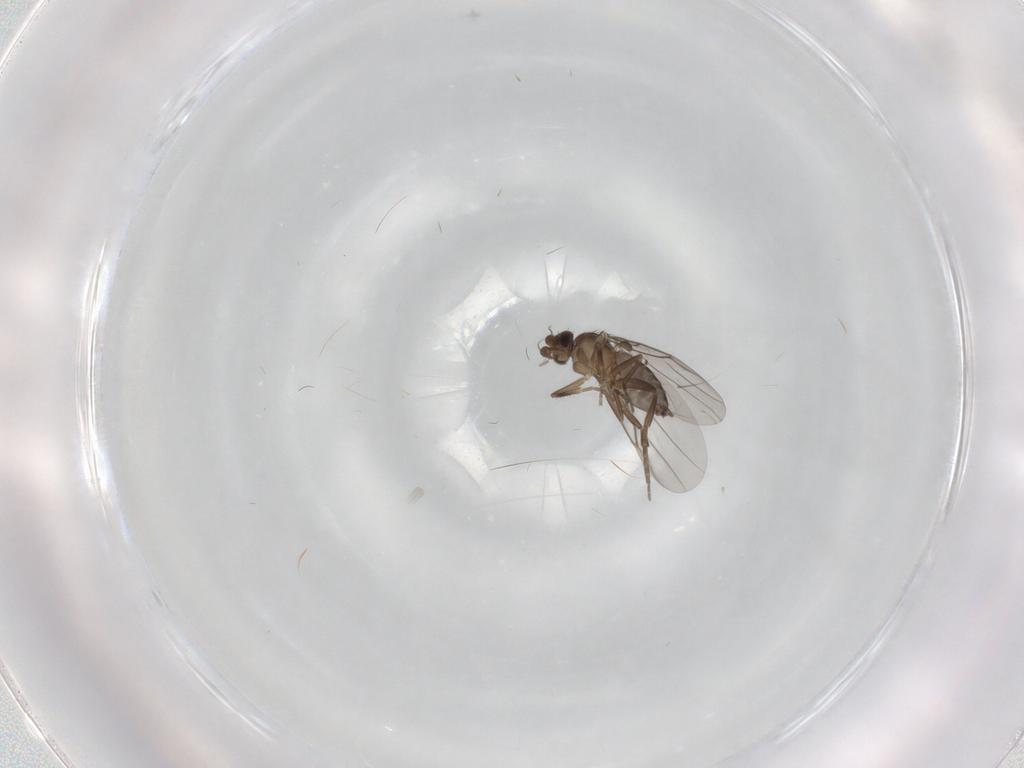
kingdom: Animalia
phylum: Arthropoda
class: Insecta
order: Diptera
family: Phoridae
